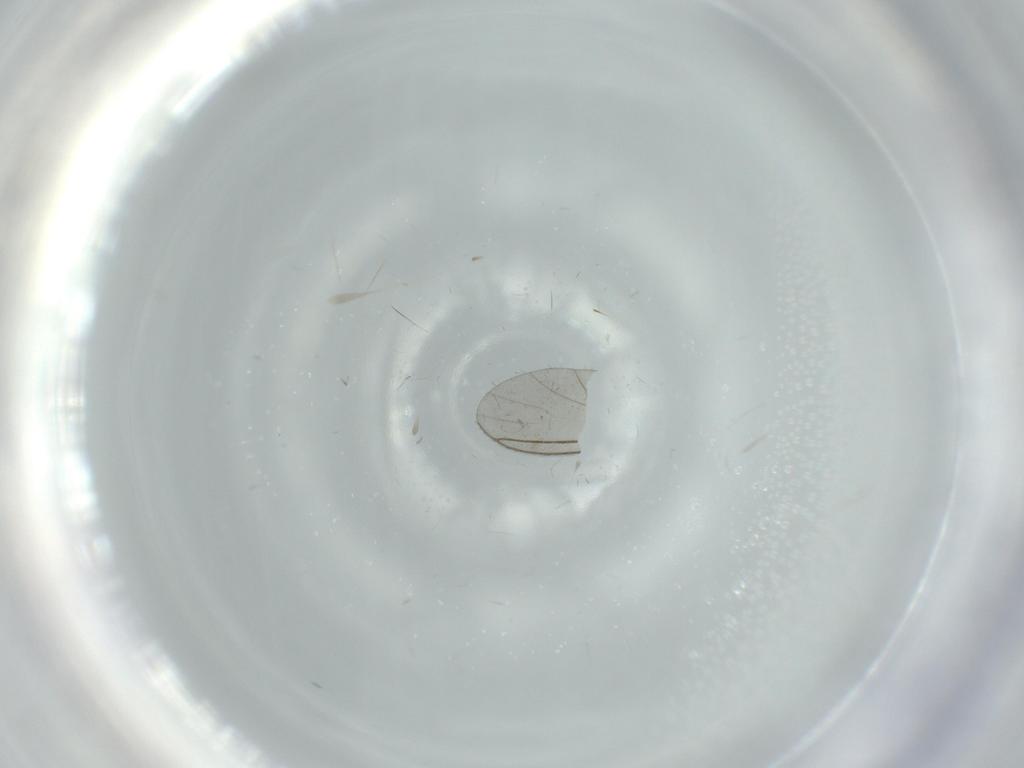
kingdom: Animalia
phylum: Arthropoda
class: Insecta
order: Diptera
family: Sciaridae
